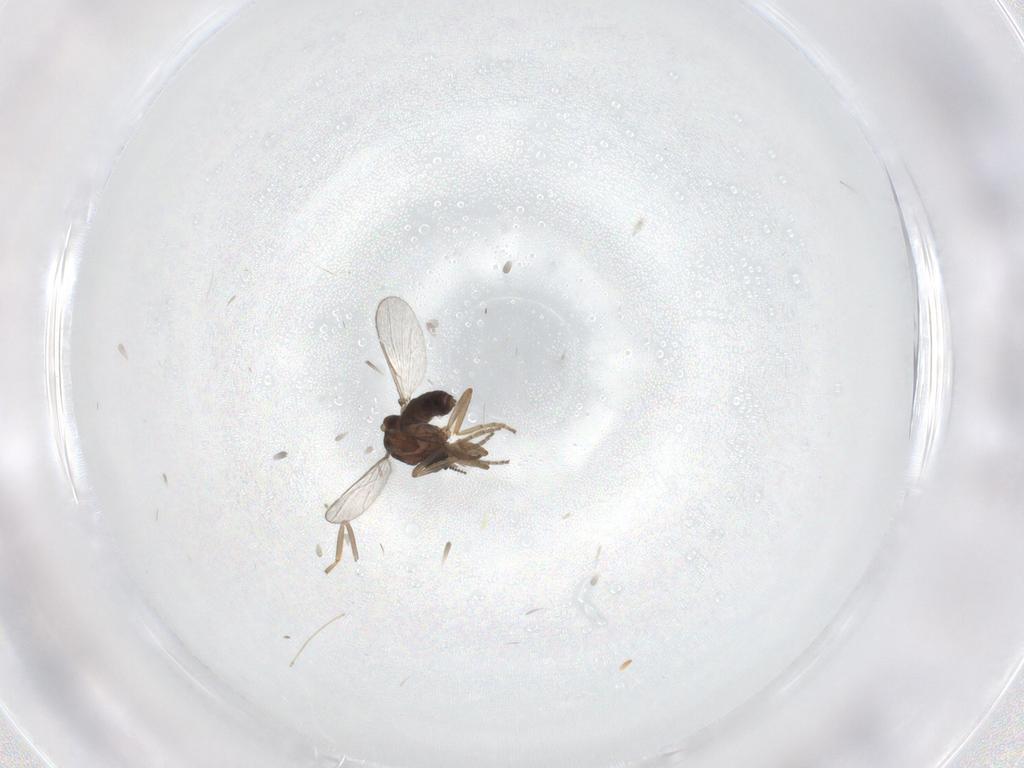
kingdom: Animalia
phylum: Arthropoda
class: Insecta
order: Diptera
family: Ceratopogonidae
